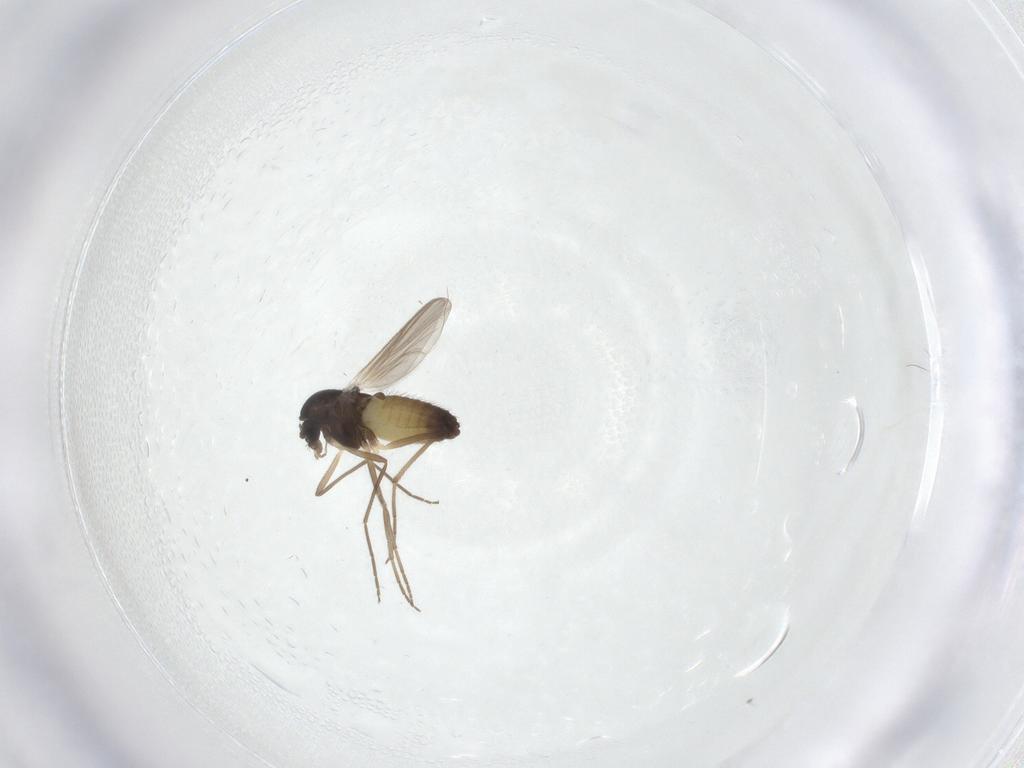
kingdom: Animalia
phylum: Arthropoda
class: Insecta
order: Diptera
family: Chironomidae
